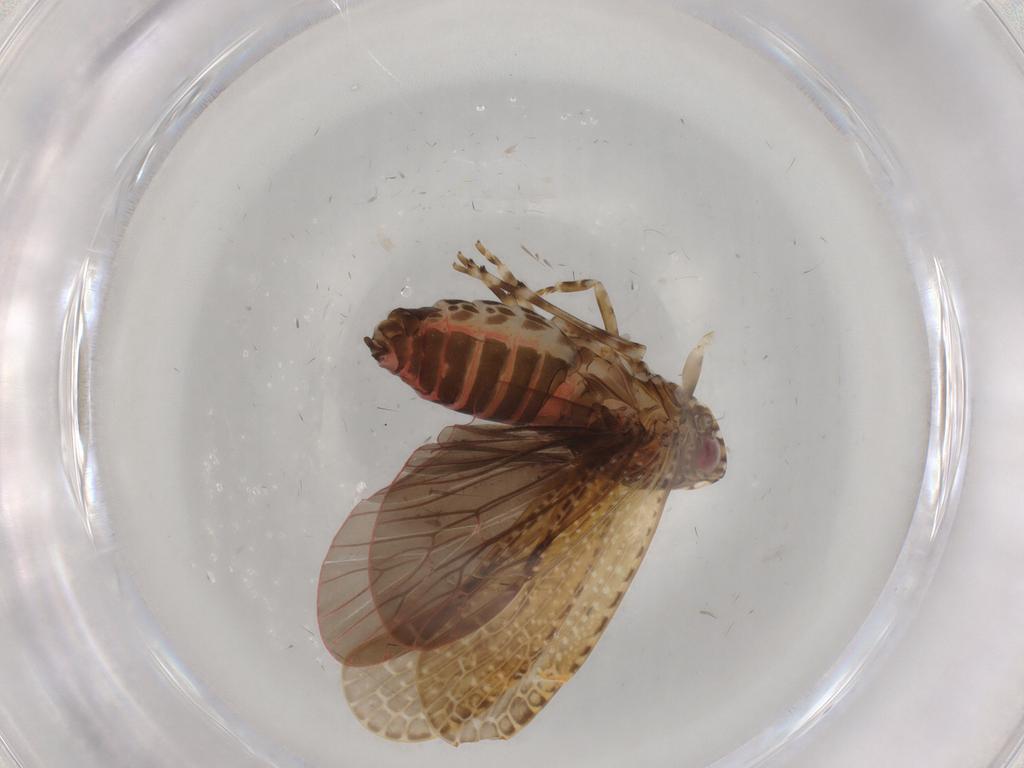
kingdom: Animalia
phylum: Arthropoda
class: Insecta
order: Hemiptera
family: Achilidae
